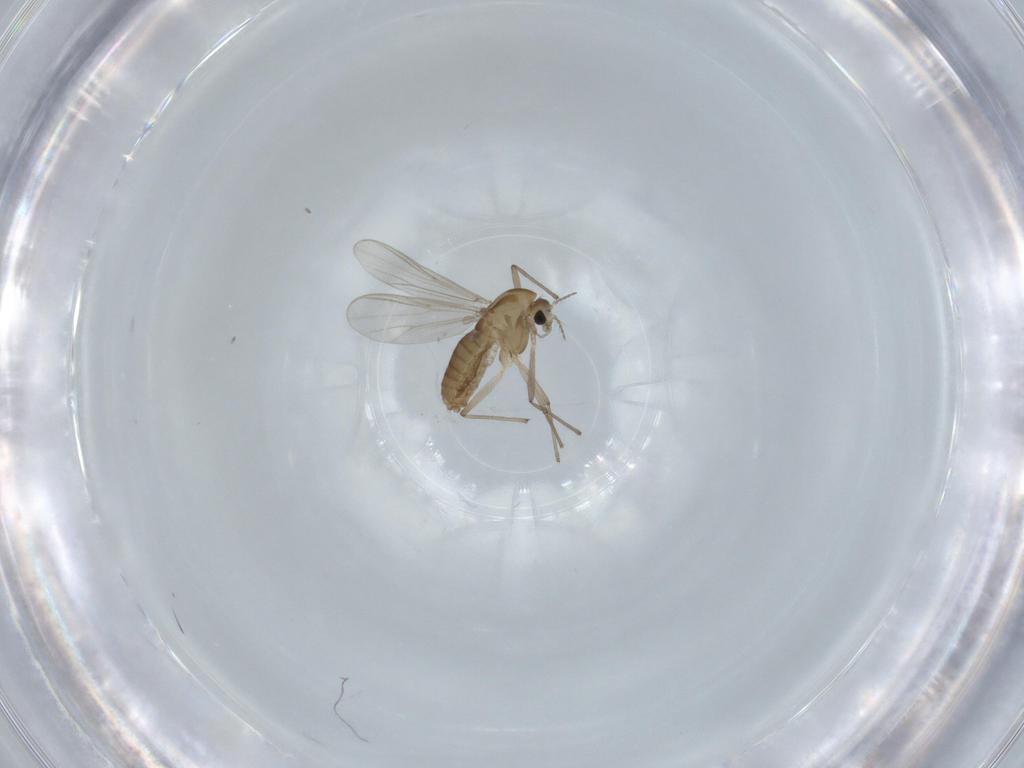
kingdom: Animalia
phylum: Arthropoda
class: Insecta
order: Diptera
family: Chironomidae
